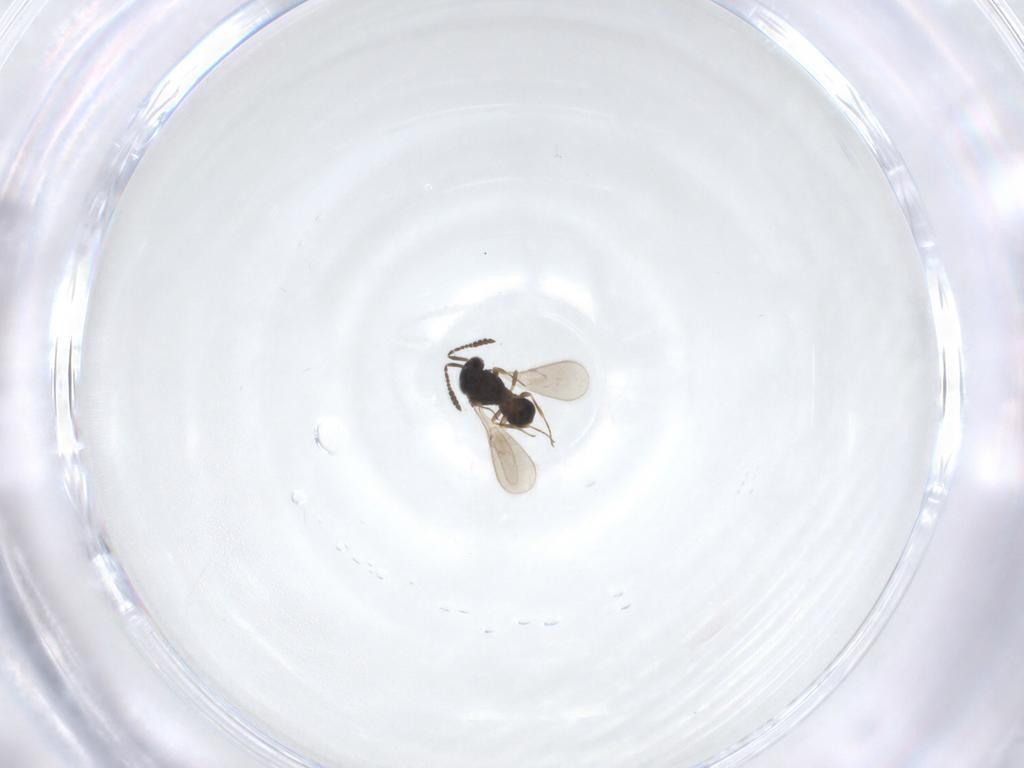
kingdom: Animalia
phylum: Arthropoda
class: Insecta
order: Hymenoptera
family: Scelionidae
